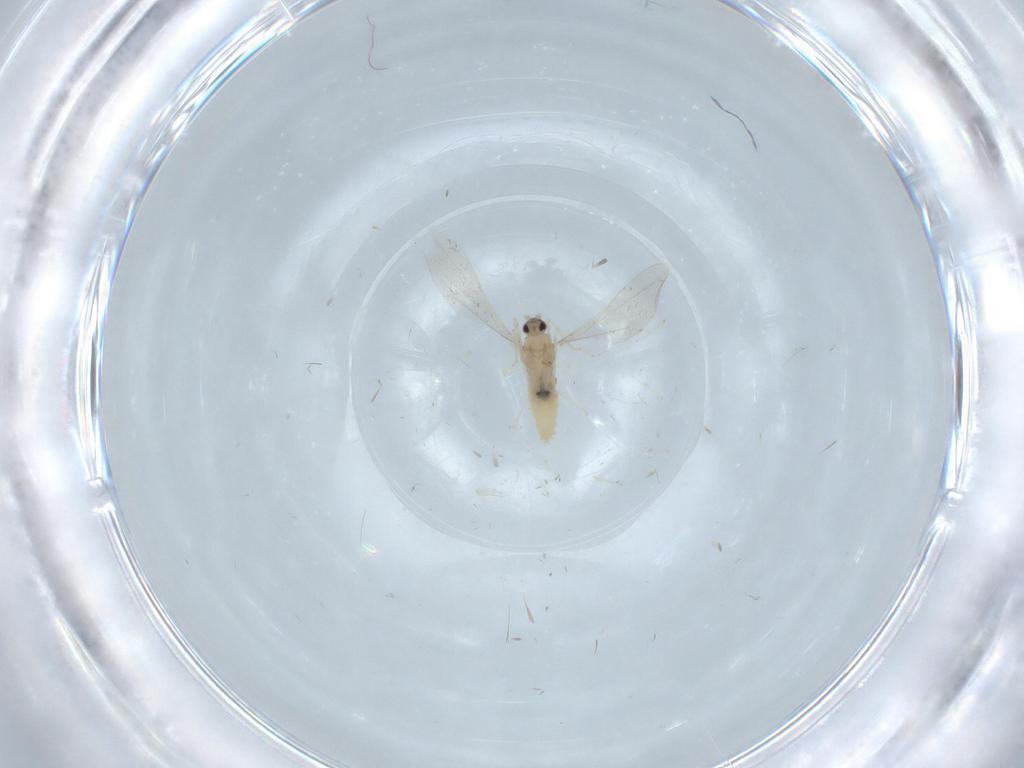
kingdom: Animalia
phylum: Arthropoda
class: Insecta
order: Diptera
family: Cecidomyiidae
